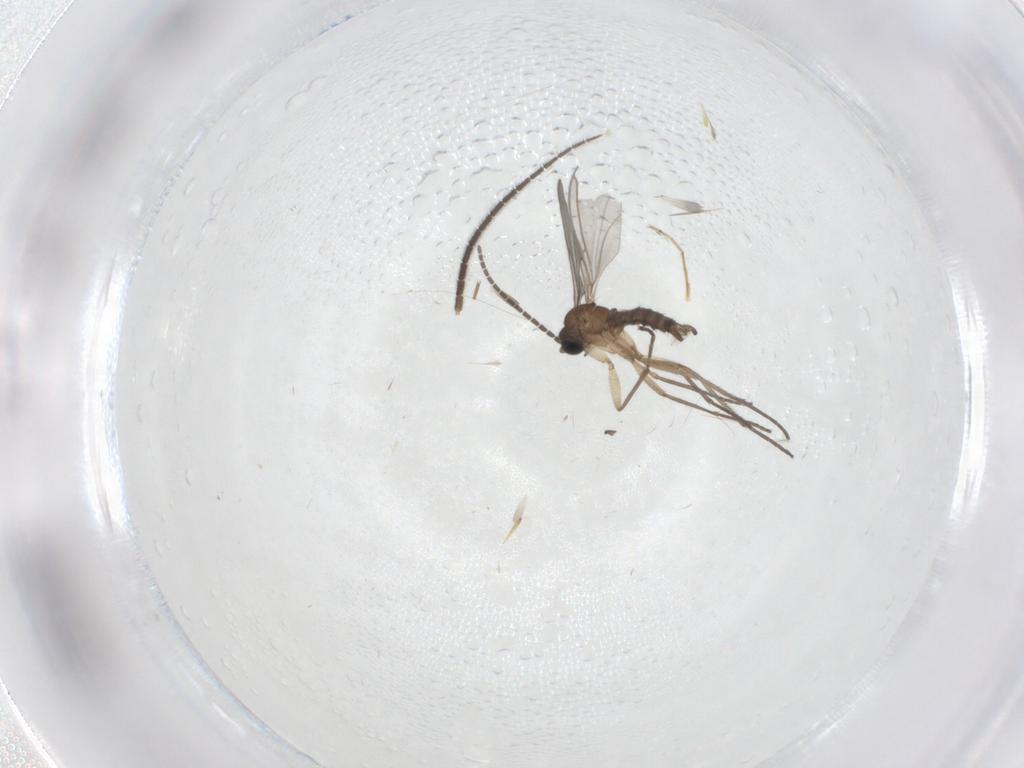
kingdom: Animalia
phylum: Arthropoda
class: Insecta
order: Diptera
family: Sciaridae
